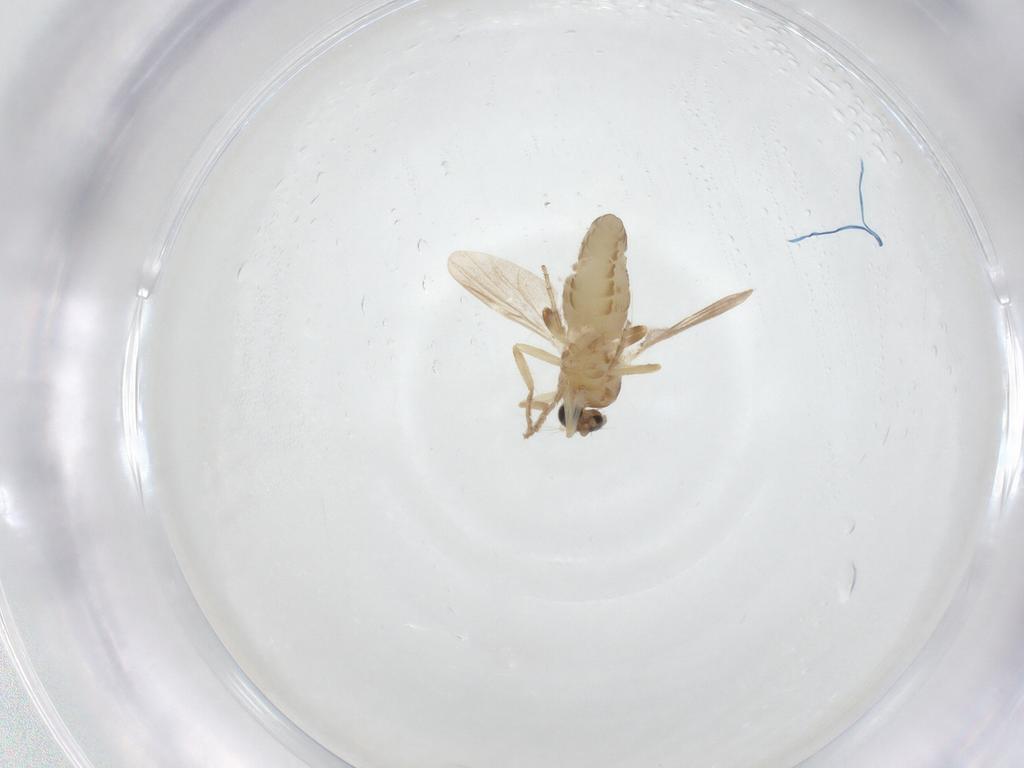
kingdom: Animalia
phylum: Arthropoda
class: Insecta
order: Diptera
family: Ceratopogonidae
